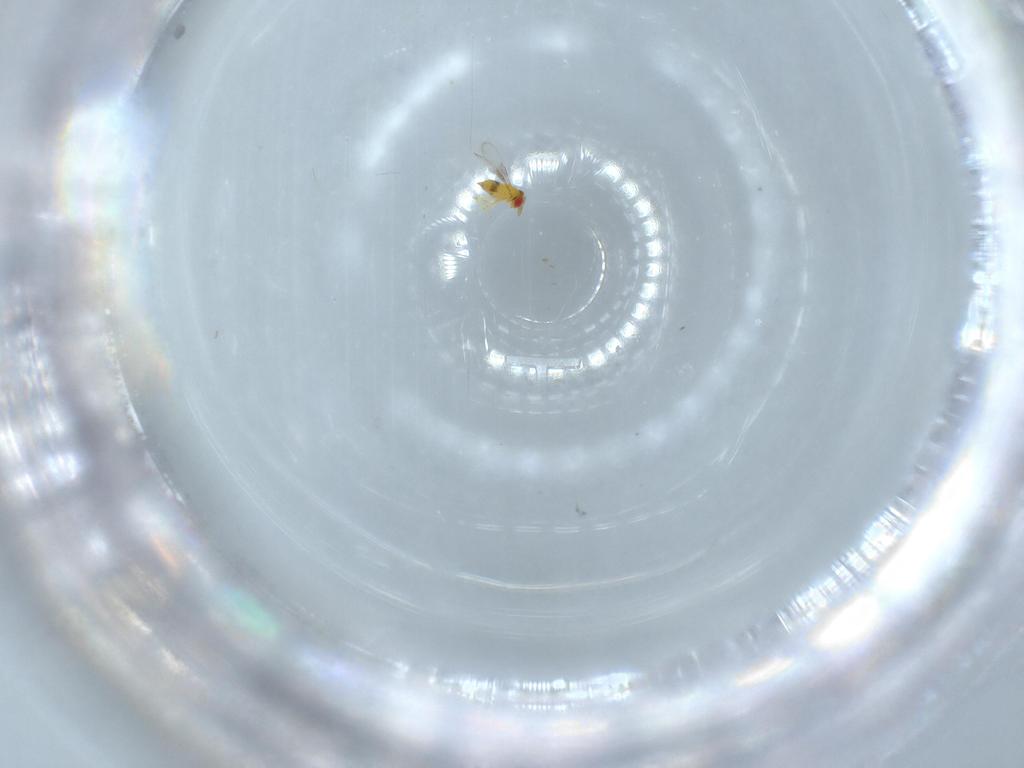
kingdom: Animalia
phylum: Arthropoda
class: Insecta
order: Hymenoptera
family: Trichogrammatidae
